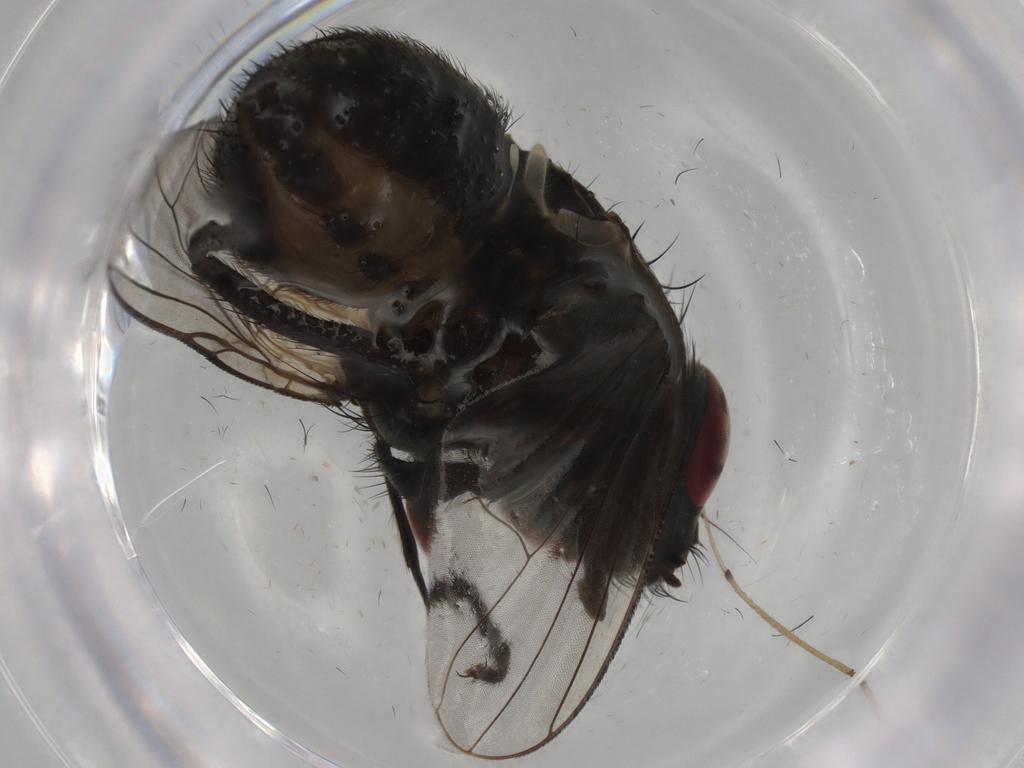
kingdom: Animalia
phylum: Arthropoda
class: Insecta
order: Diptera
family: Muscidae
